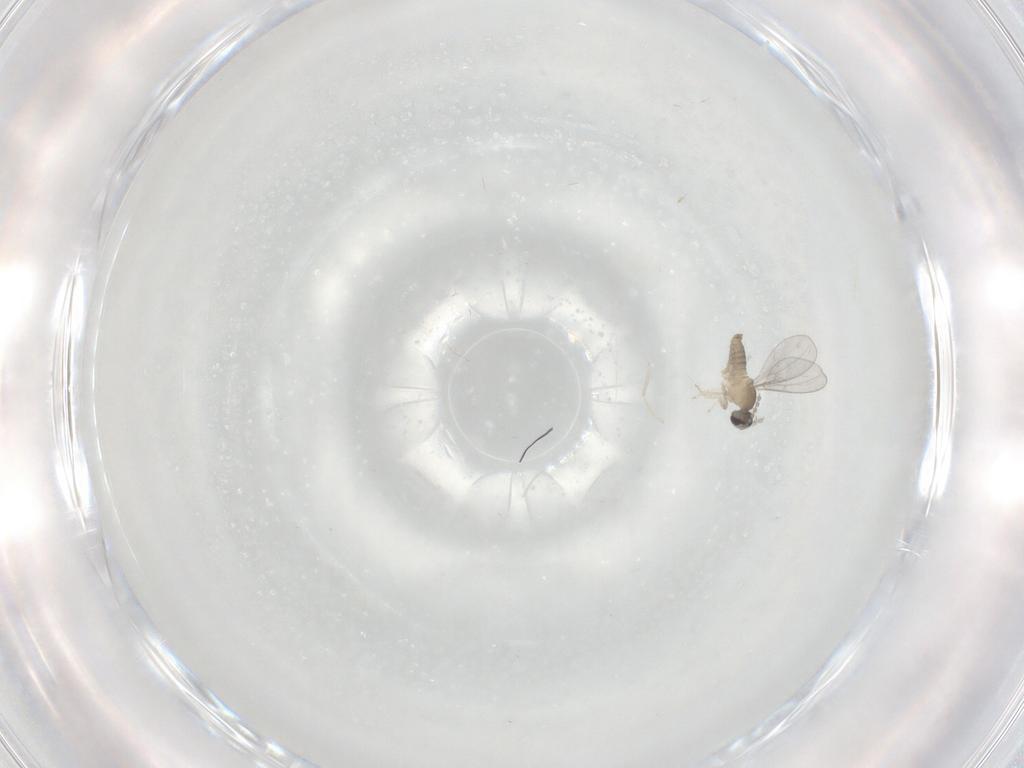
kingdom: Animalia
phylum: Arthropoda
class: Insecta
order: Diptera
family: Cecidomyiidae
